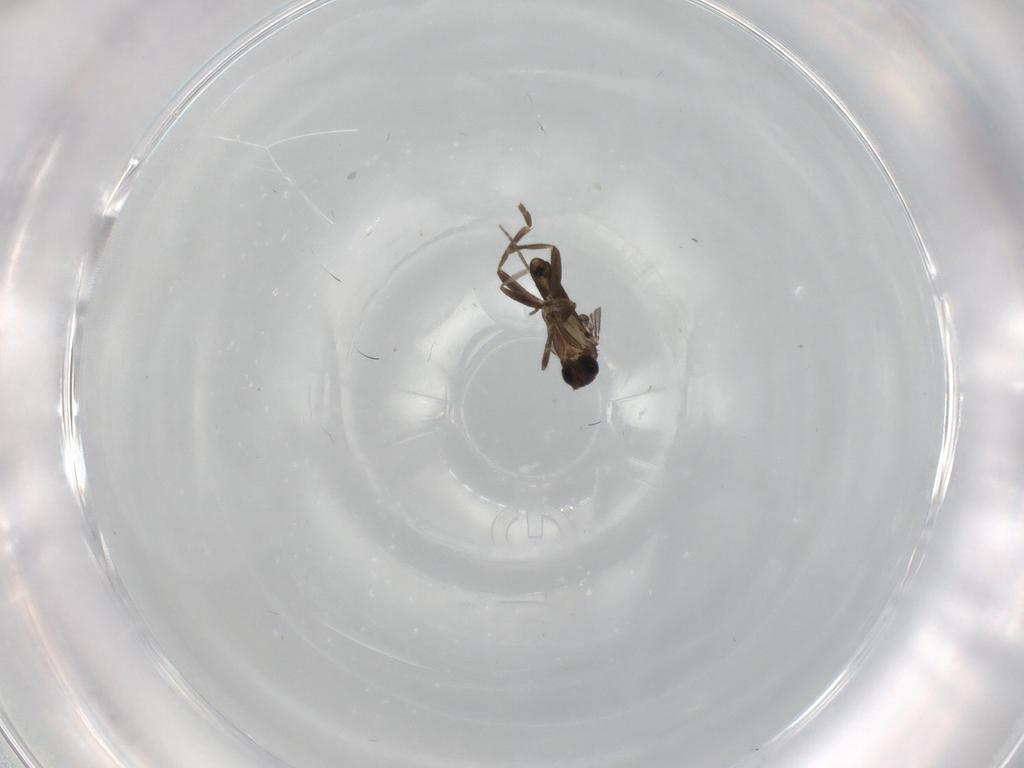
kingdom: Animalia
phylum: Arthropoda
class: Insecta
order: Diptera
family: Phoridae
